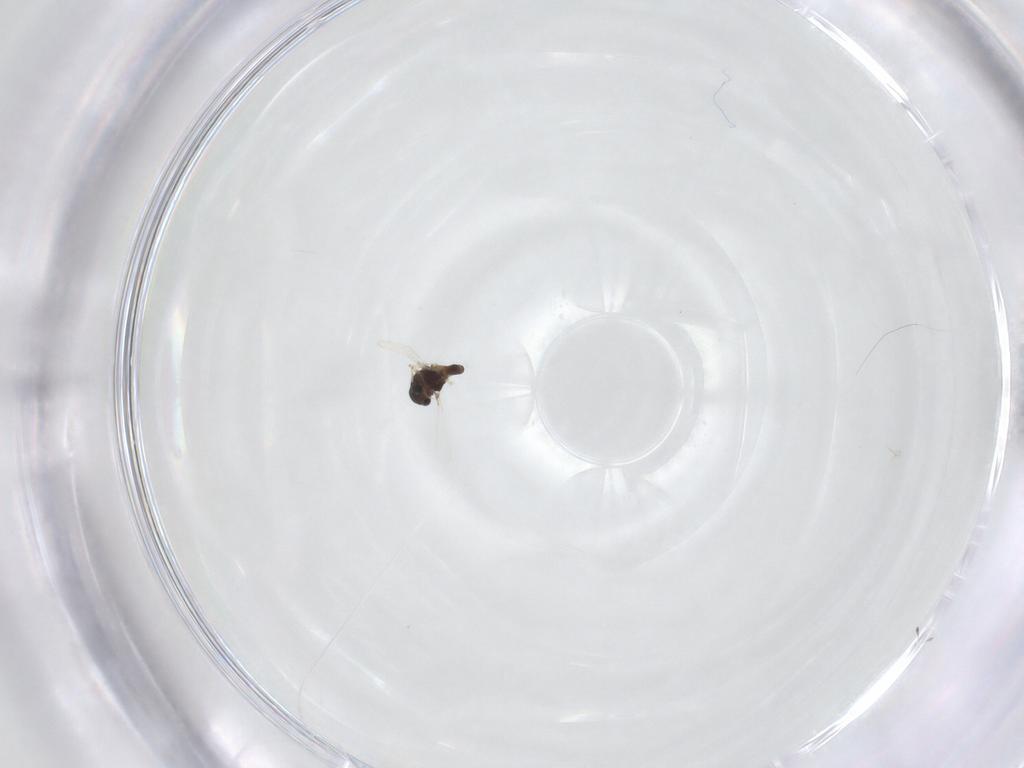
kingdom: Animalia
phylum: Arthropoda
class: Insecta
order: Diptera
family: Chironomidae
